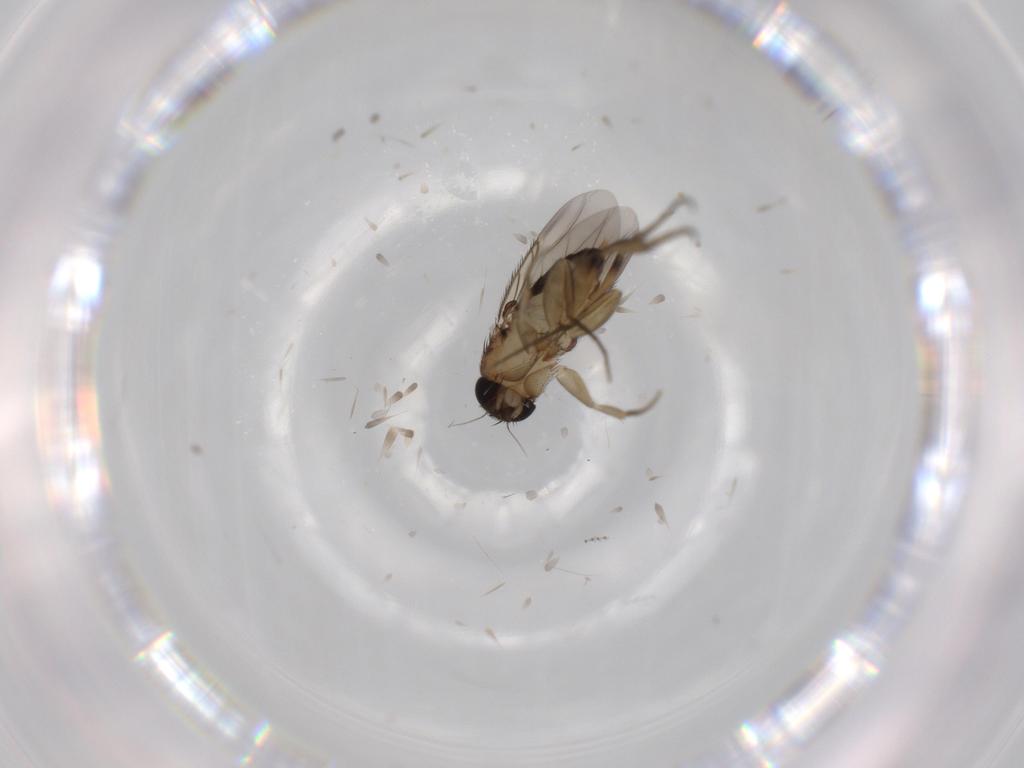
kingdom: Animalia
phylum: Arthropoda
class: Insecta
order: Diptera
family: Phoridae
